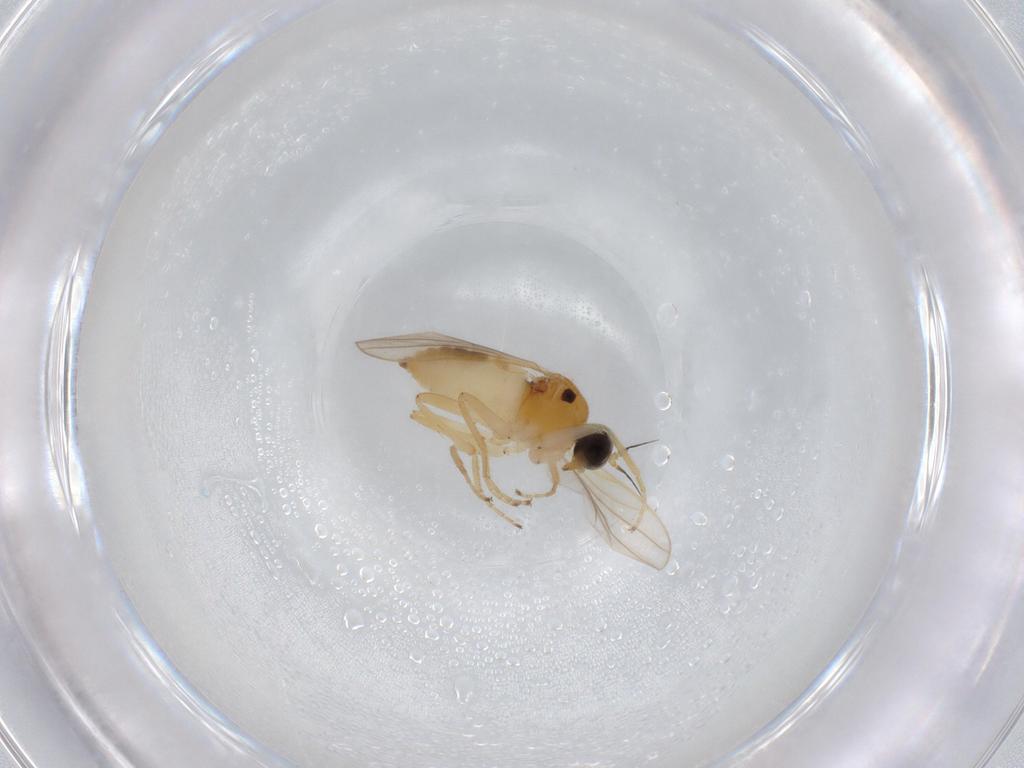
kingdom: Animalia
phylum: Arthropoda
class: Insecta
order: Diptera
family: Hybotidae
